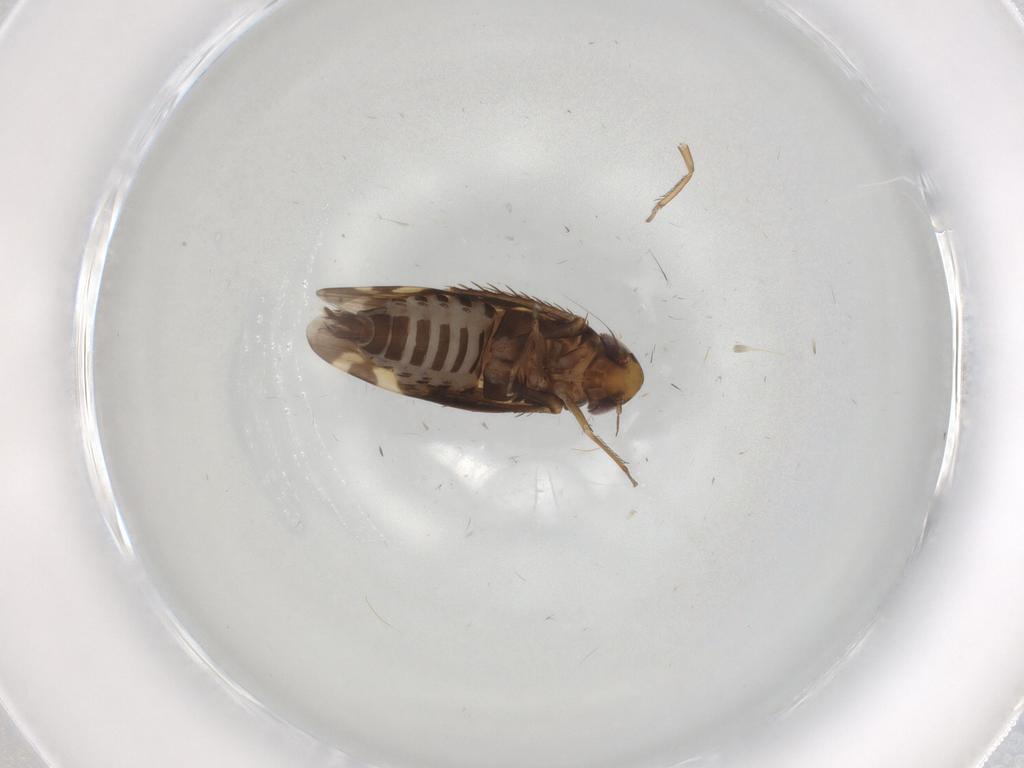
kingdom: Animalia
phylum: Arthropoda
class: Insecta
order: Hemiptera
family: Cicadellidae
